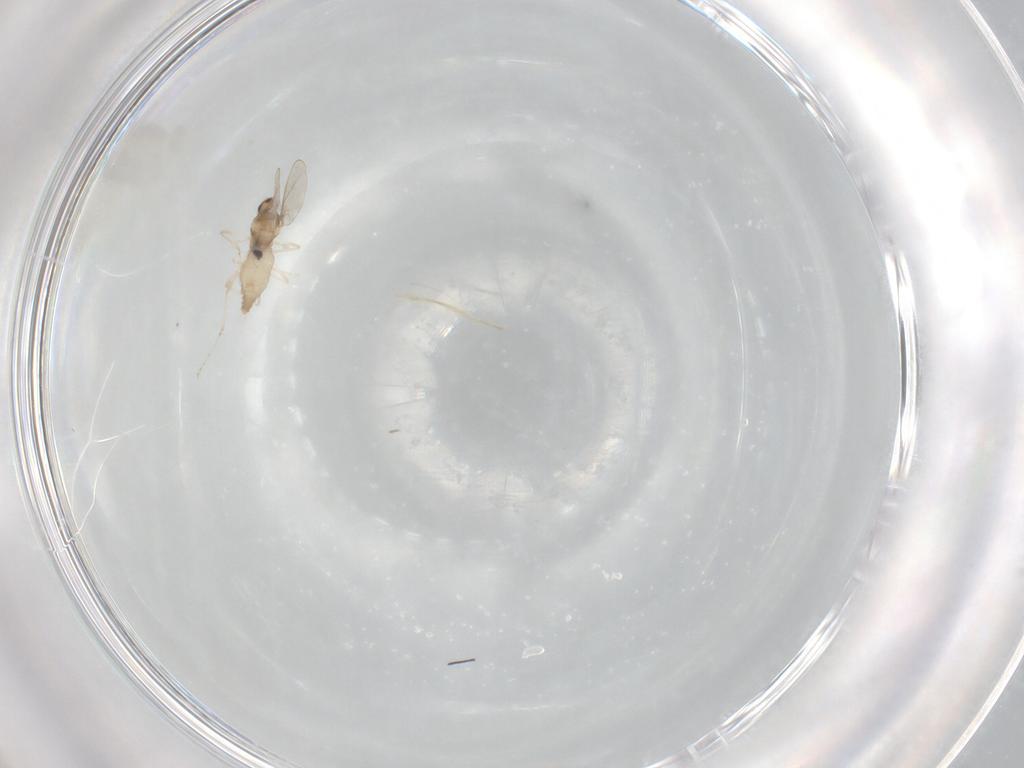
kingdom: Animalia
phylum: Arthropoda
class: Insecta
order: Diptera
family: Cecidomyiidae
